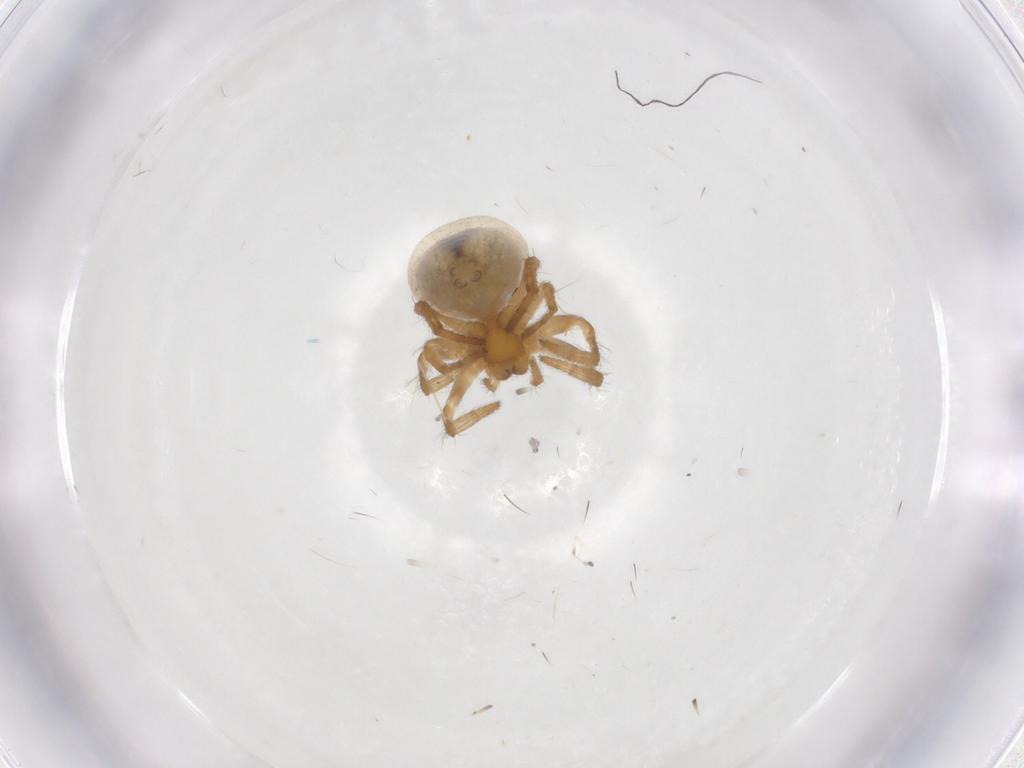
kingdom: Animalia
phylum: Arthropoda
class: Arachnida
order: Araneae
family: Araneidae
